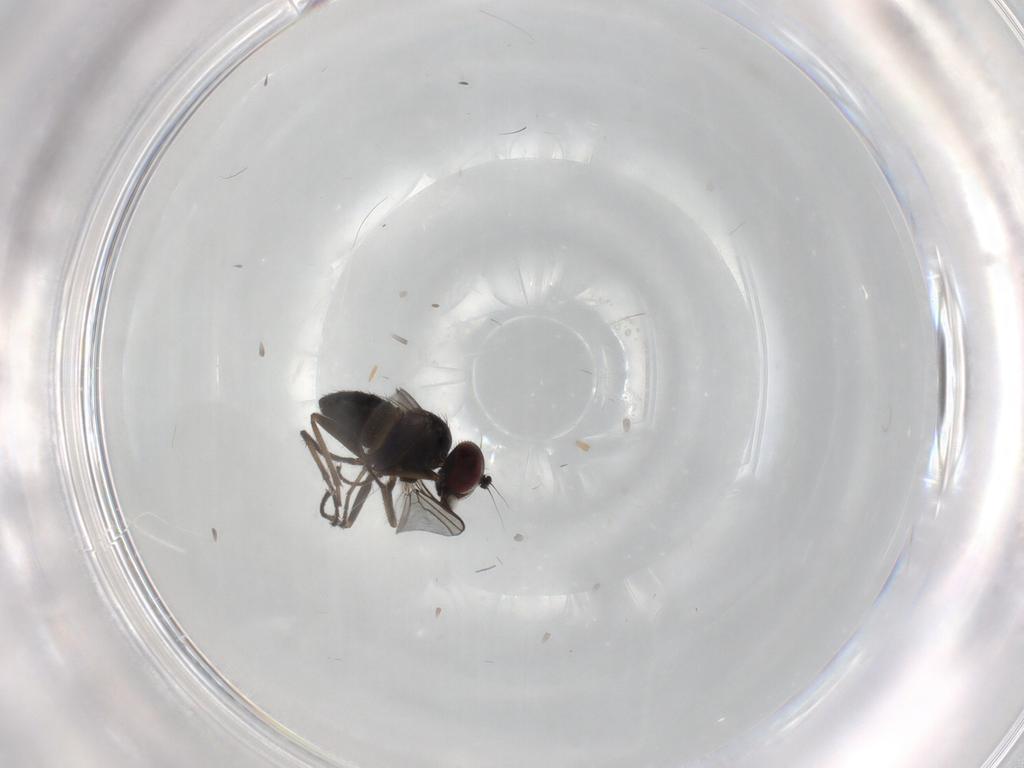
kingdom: Animalia
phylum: Arthropoda
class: Insecta
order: Diptera
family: Dolichopodidae
